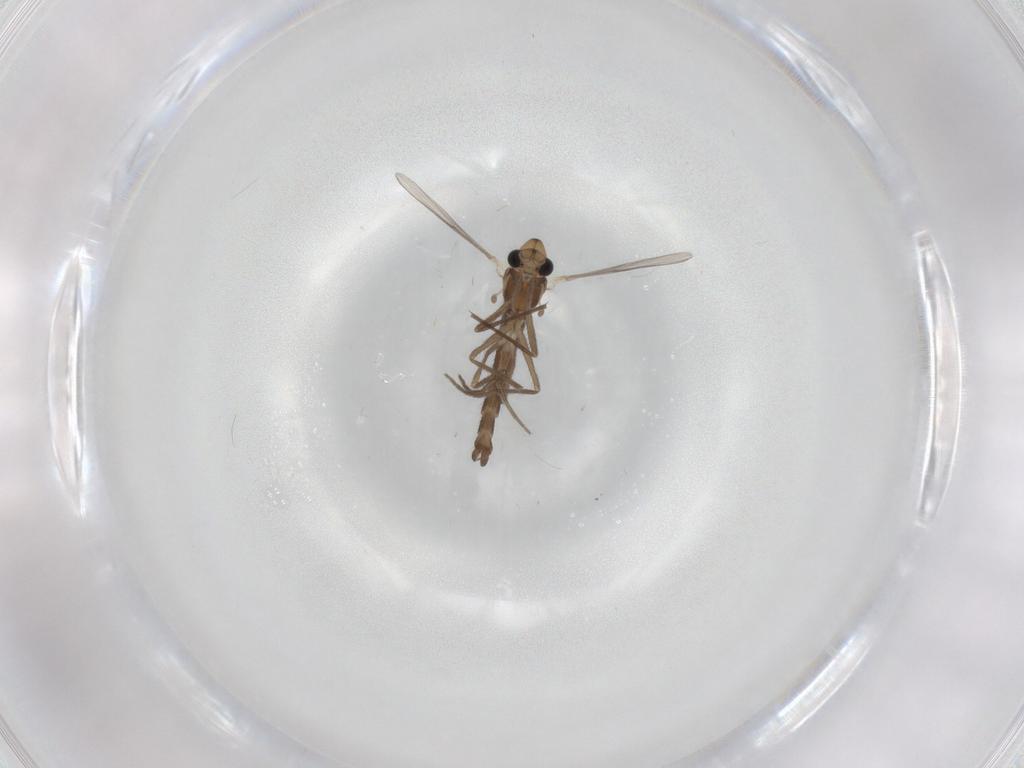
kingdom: Animalia
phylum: Arthropoda
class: Insecta
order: Diptera
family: Chironomidae
